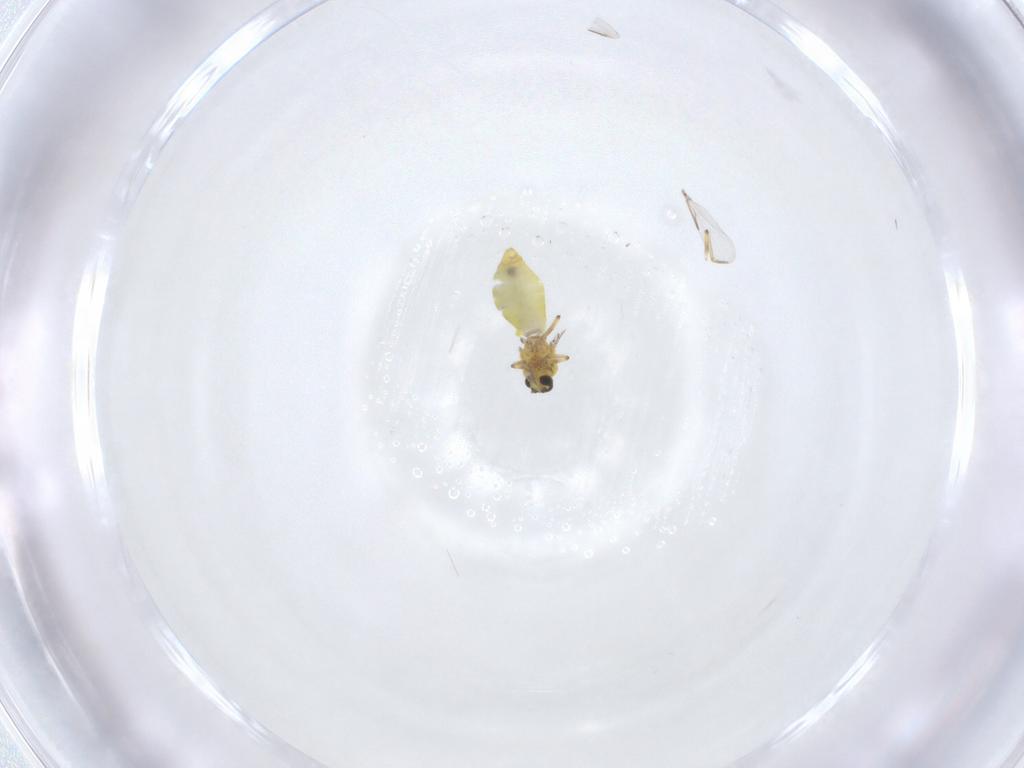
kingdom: Animalia
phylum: Arthropoda
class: Insecta
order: Diptera
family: Ceratopogonidae
